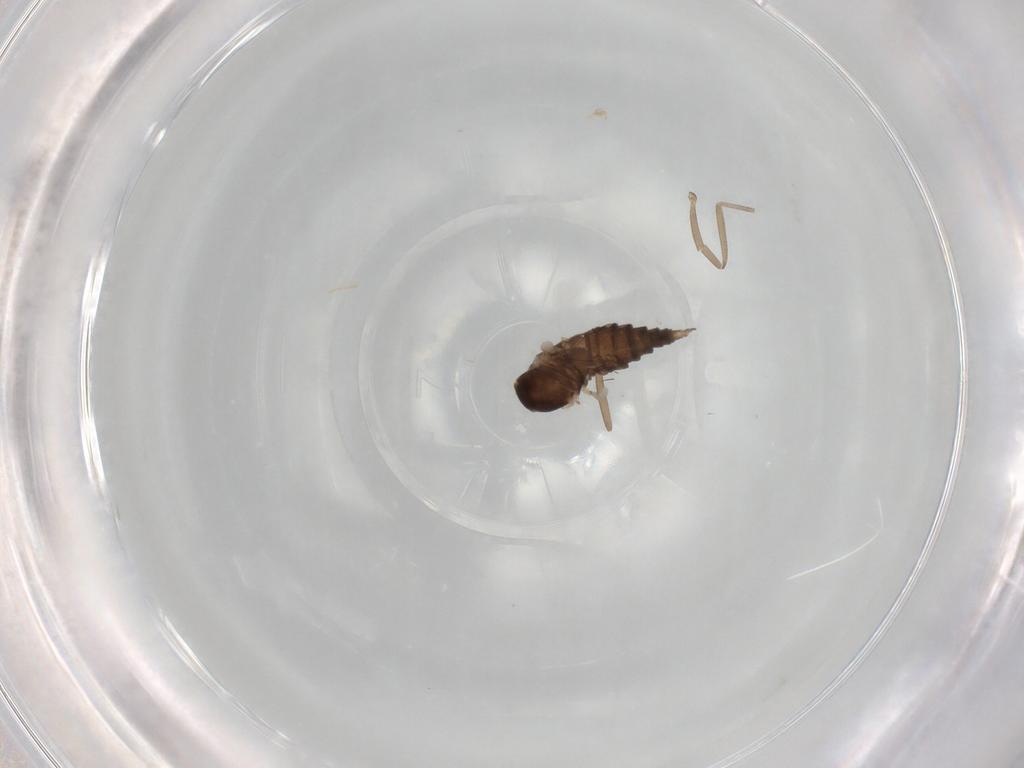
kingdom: Animalia
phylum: Arthropoda
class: Insecta
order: Diptera
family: Cecidomyiidae
